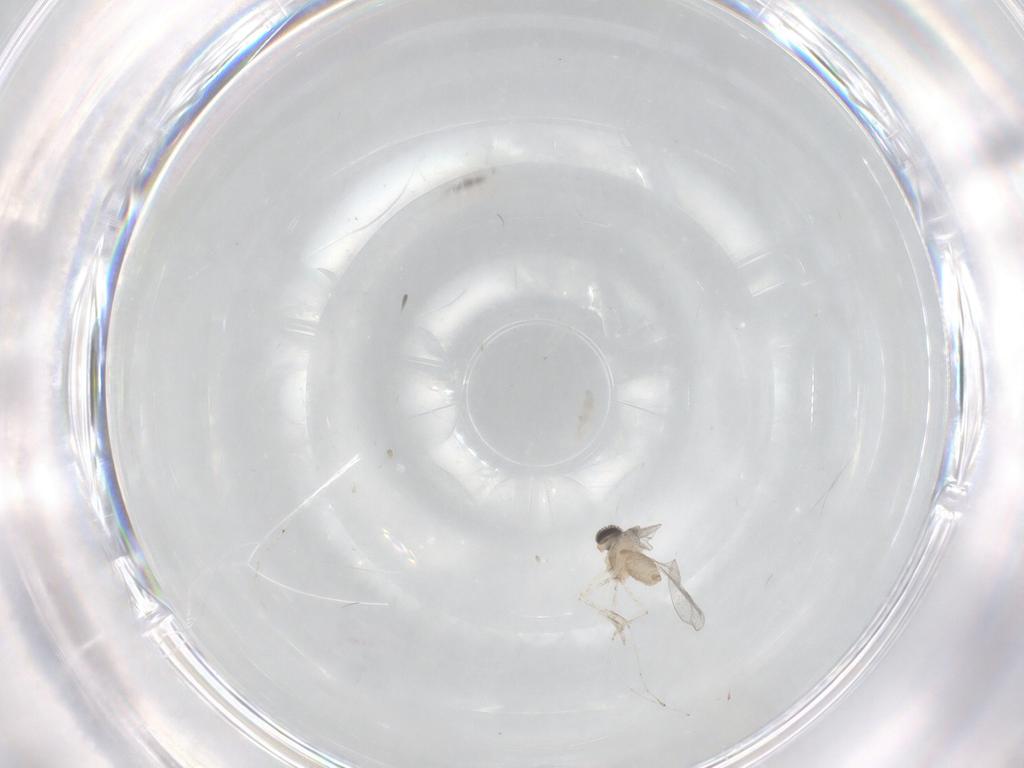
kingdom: Animalia
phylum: Arthropoda
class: Insecta
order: Diptera
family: Cecidomyiidae
